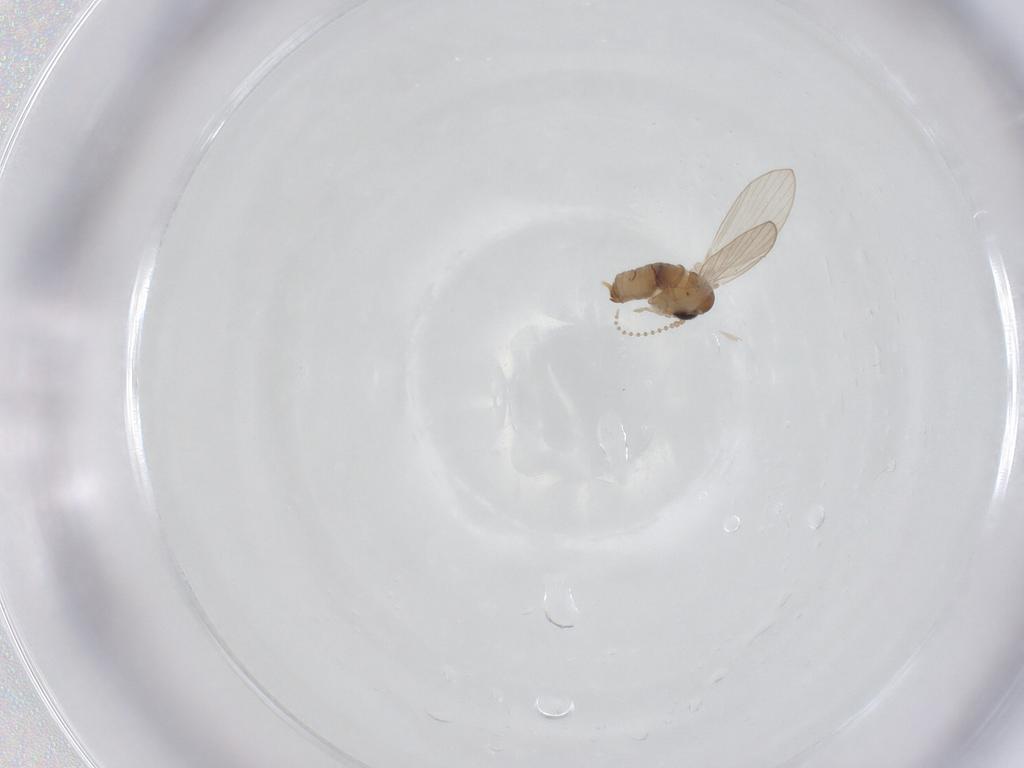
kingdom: Animalia
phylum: Arthropoda
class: Insecta
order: Diptera
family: Psychodidae
